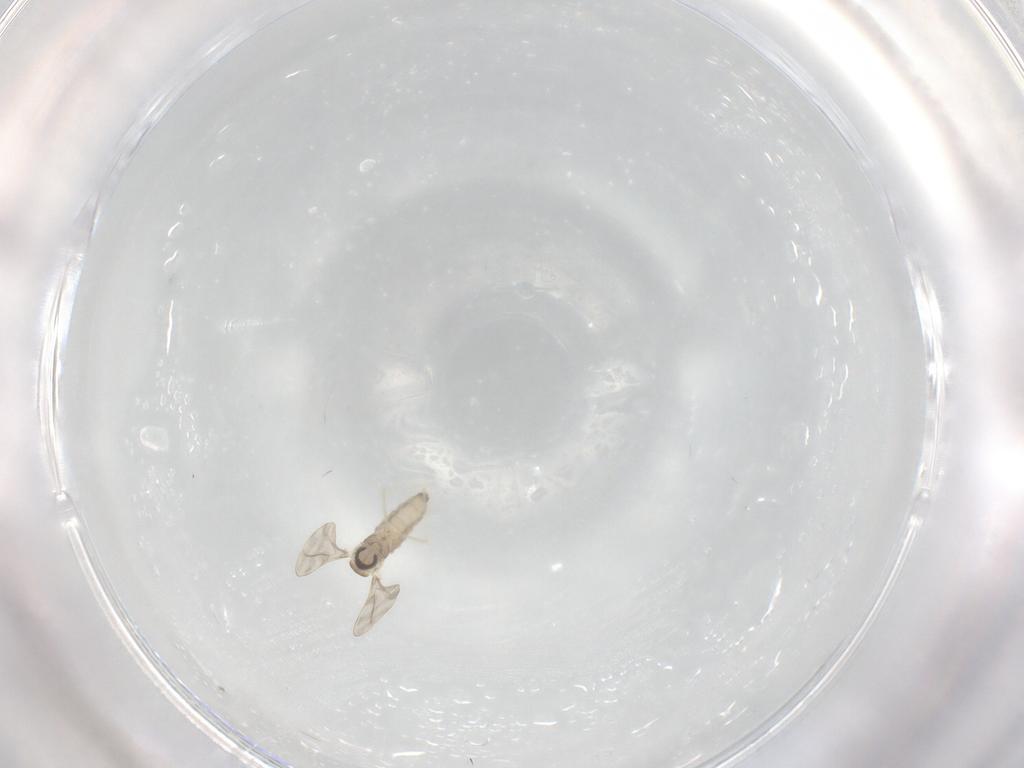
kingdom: Animalia
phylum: Arthropoda
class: Insecta
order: Diptera
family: Cecidomyiidae
